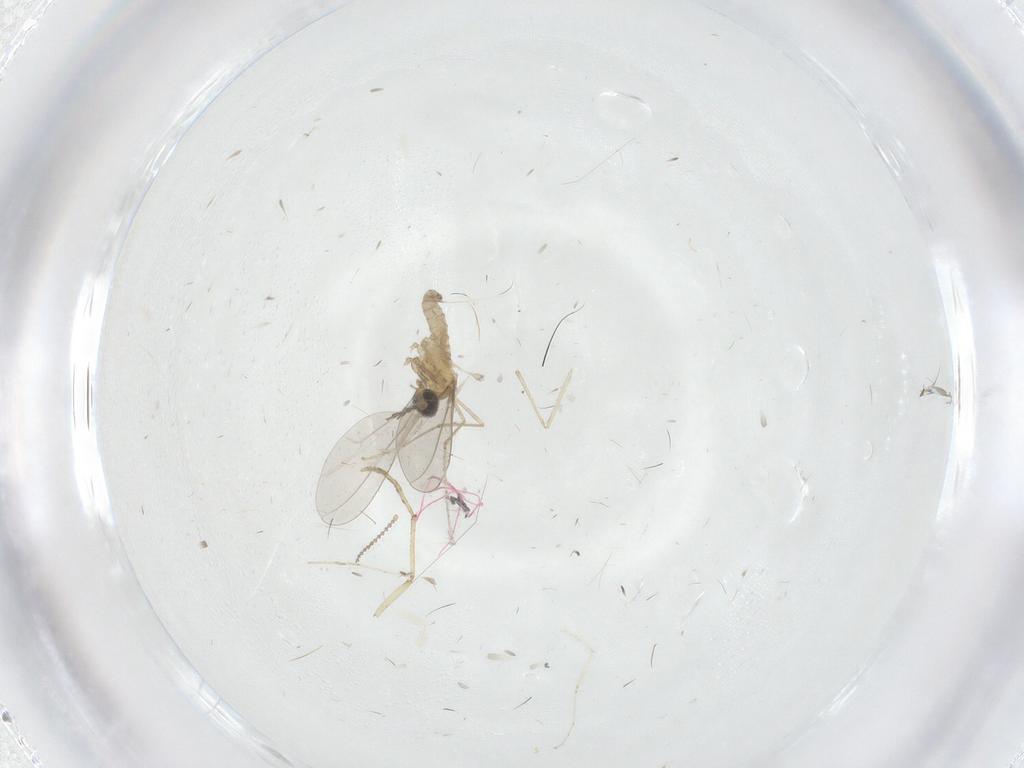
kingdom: Animalia
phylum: Arthropoda
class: Insecta
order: Diptera
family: Cecidomyiidae
